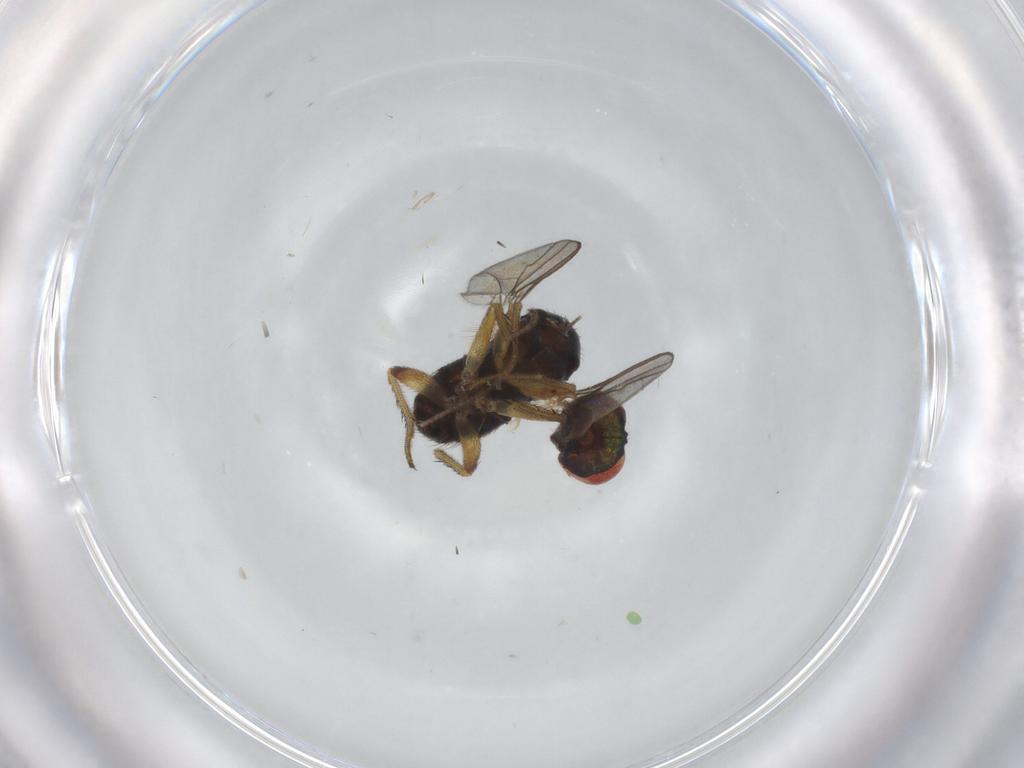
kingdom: Animalia
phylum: Arthropoda
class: Insecta
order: Diptera
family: Dolichopodidae
